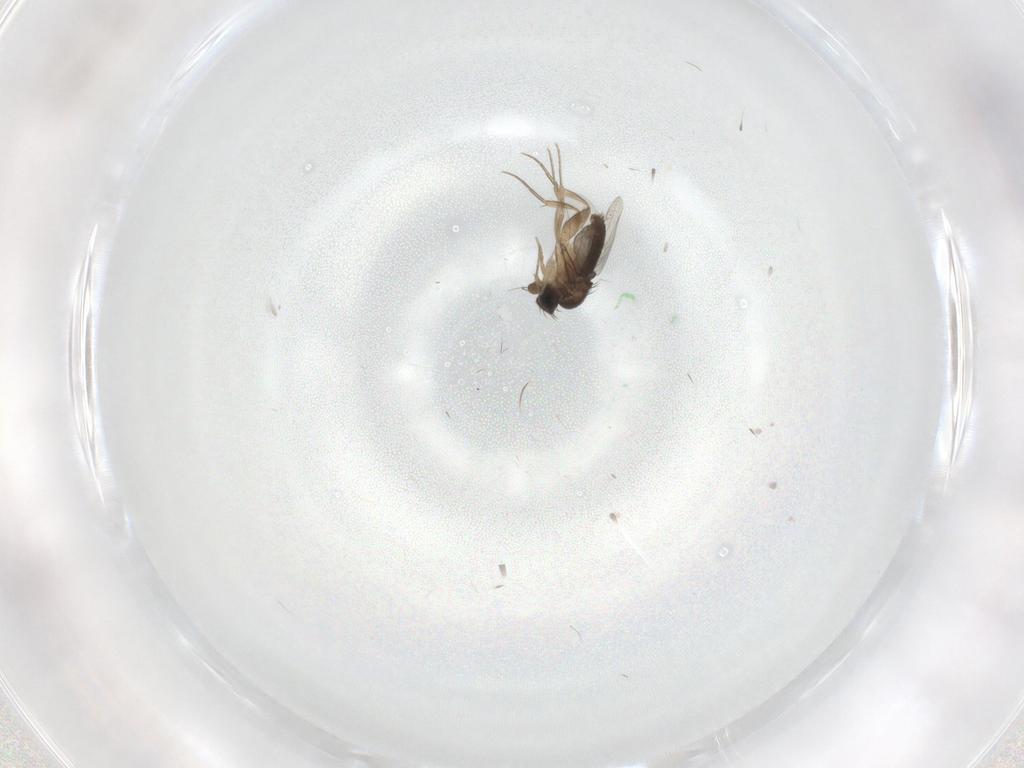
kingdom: Animalia
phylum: Arthropoda
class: Insecta
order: Diptera
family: Phoridae
